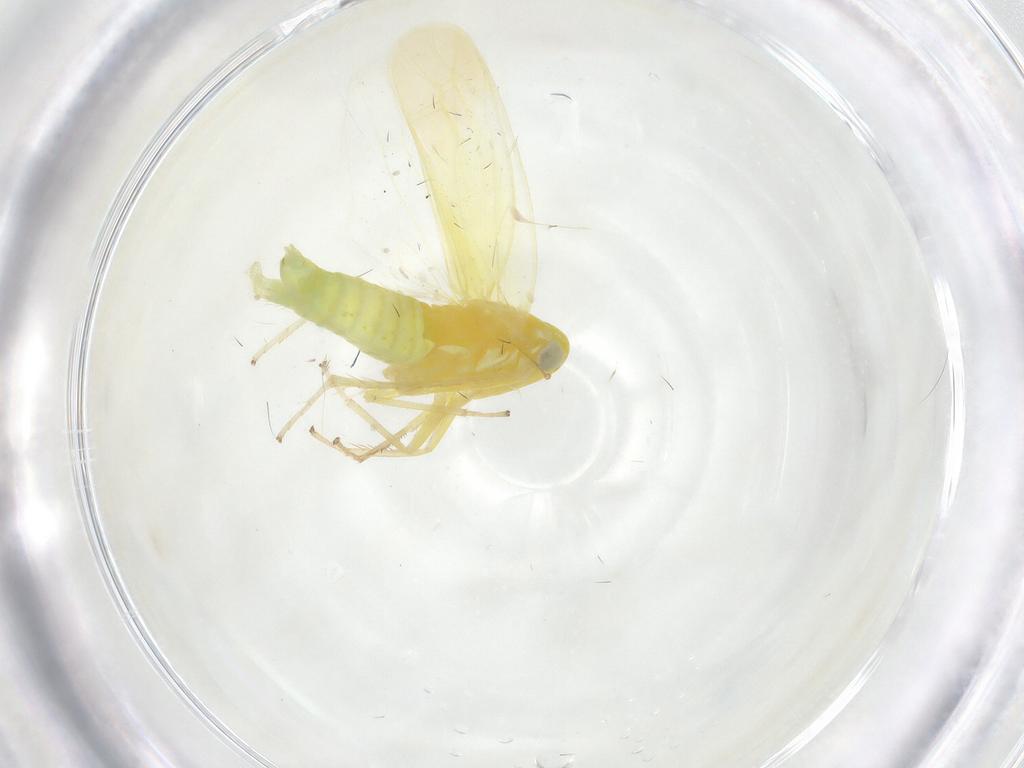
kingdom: Animalia
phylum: Arthropoda
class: Insecta
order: Hemiptera
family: Cicadellidae
